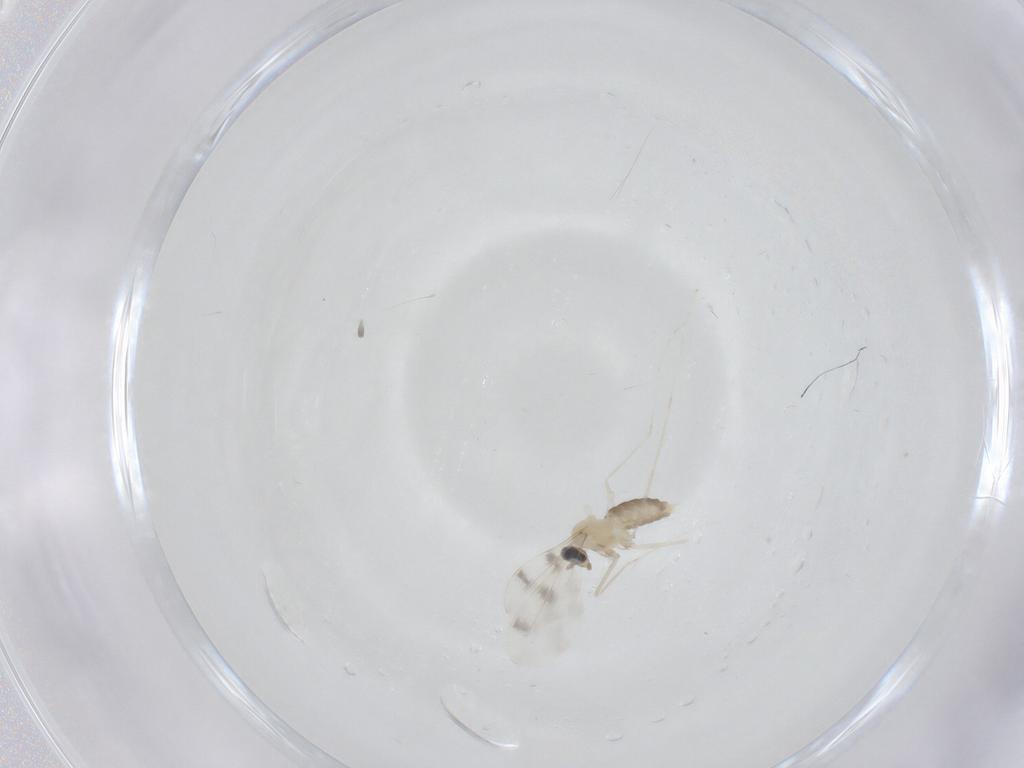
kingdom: Animalia
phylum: Arthropoda
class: Insecta
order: Diptera
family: Cecidomyiidae
